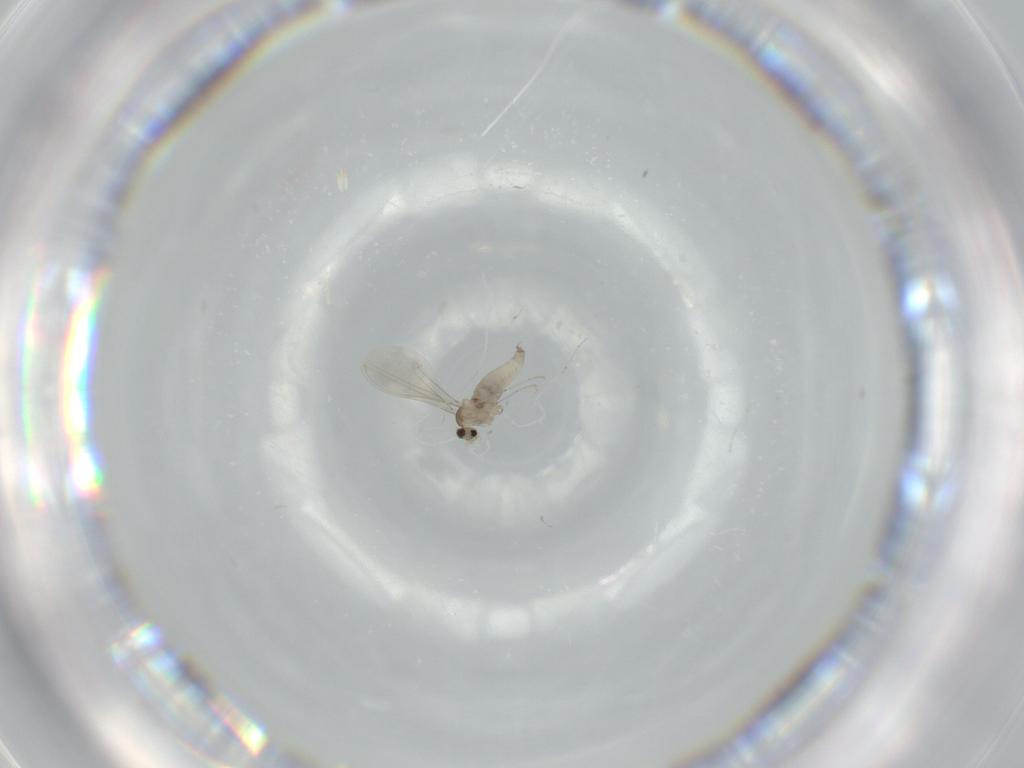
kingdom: Animalia
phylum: Arthropoda
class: Insecta
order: Diptera
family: Cecidomyiidae
